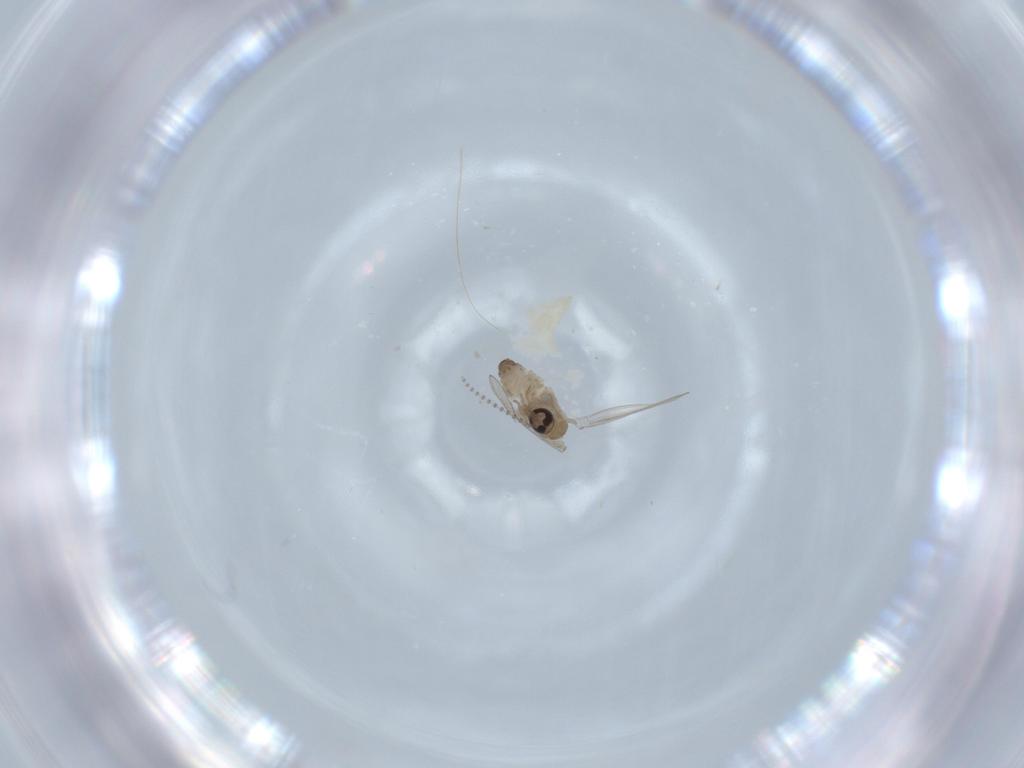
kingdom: Animalia
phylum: Arthropoda
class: Insecta
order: Diptera
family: Cecidomyiidae
